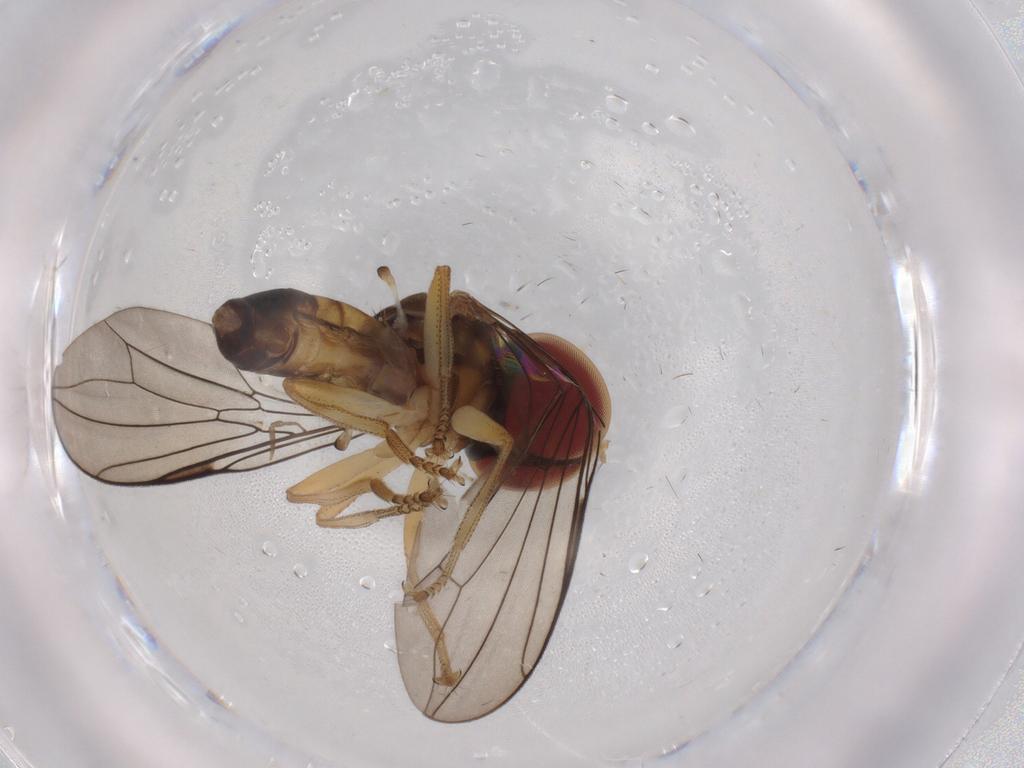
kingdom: Animalia
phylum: Arthropoda
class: Insecta
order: Diptera
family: Pipunculidae
